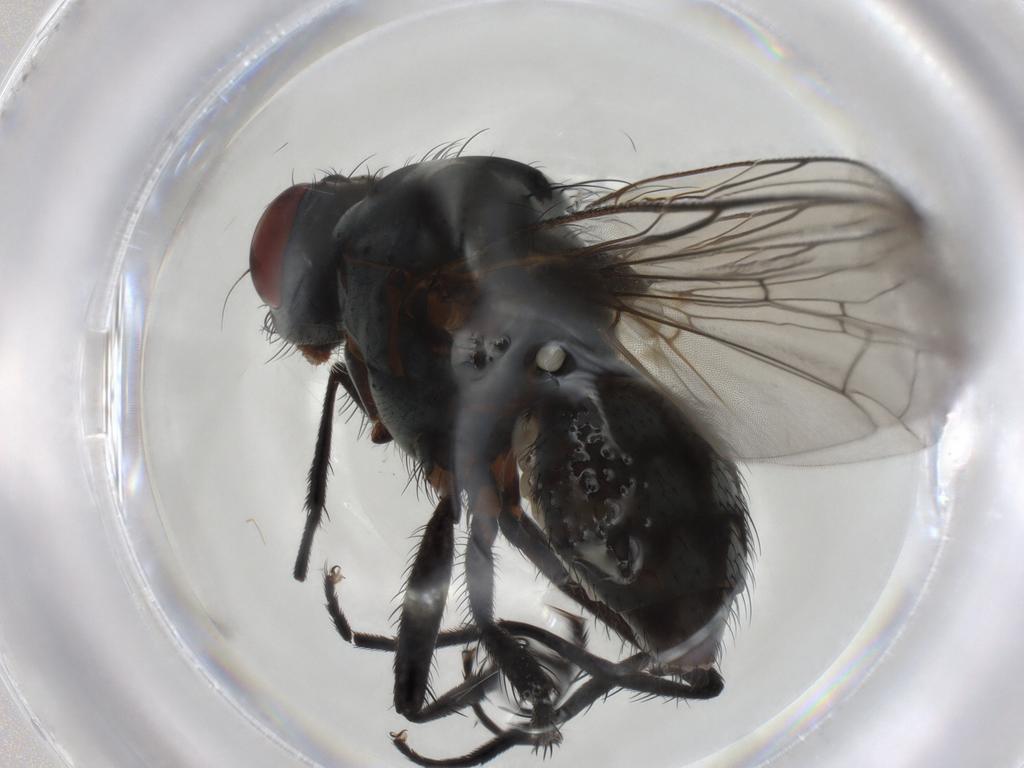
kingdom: Animalia
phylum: Arthropoda
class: Insecta
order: Diptera
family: Anthomyiidae
